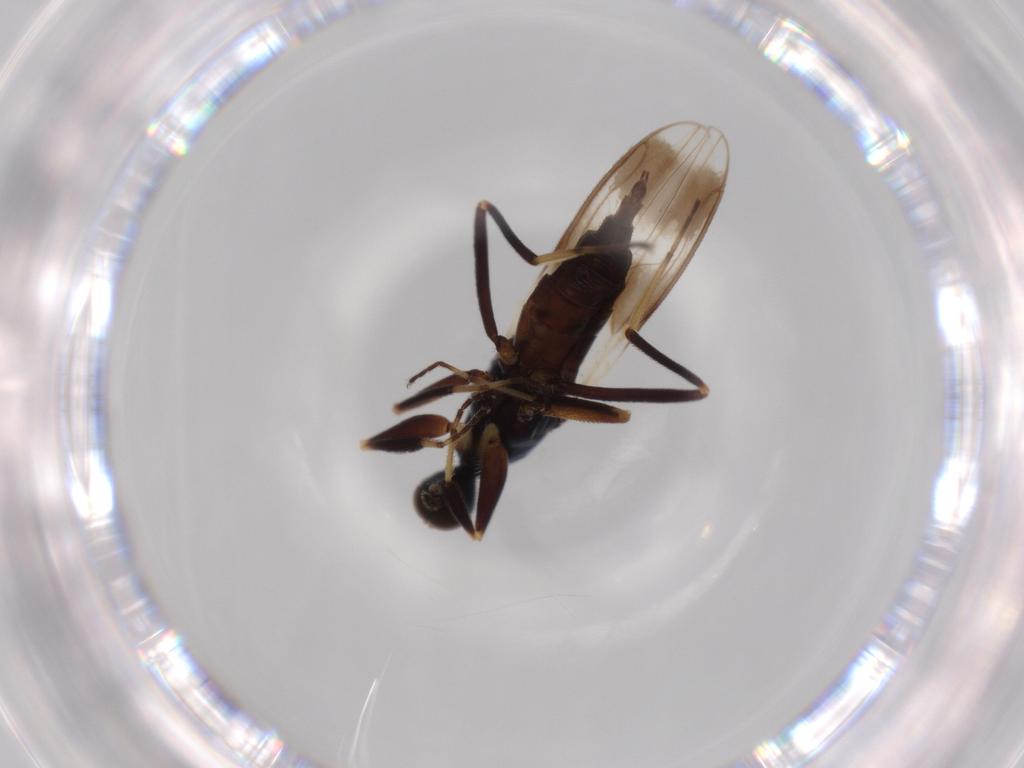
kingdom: Animalia
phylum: Arthropoda
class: Insecta
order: Diptera
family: Hybotidae
